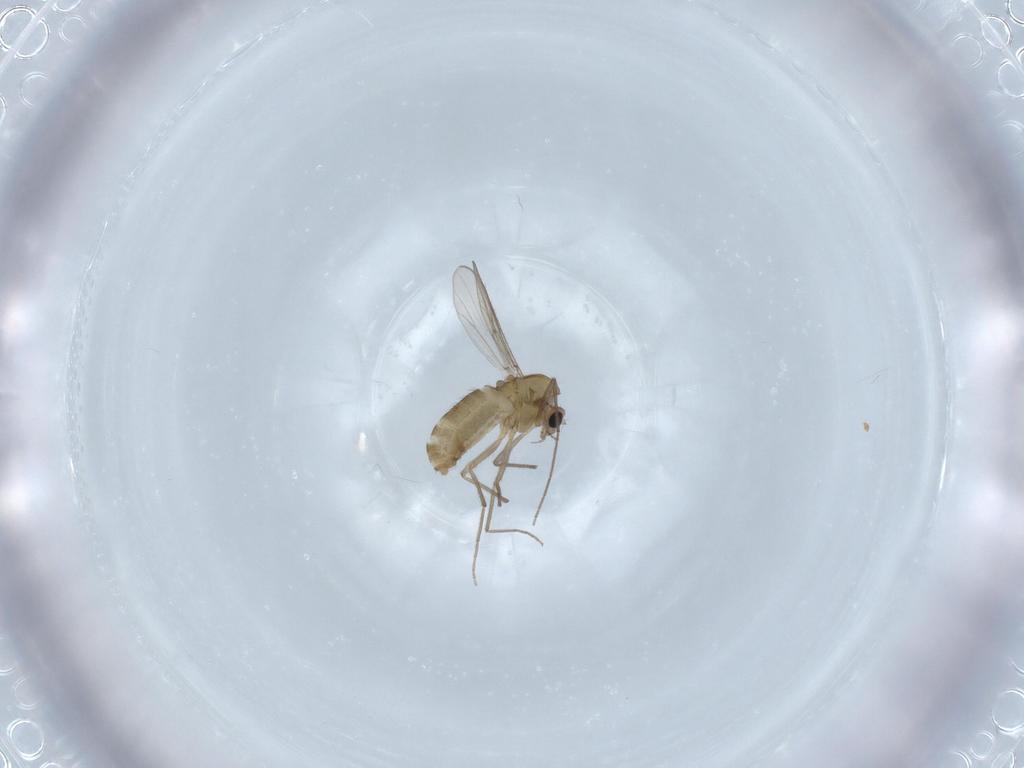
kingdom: Animalia
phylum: Arthropoda
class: Insecta
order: Diptera
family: Chironomidae
